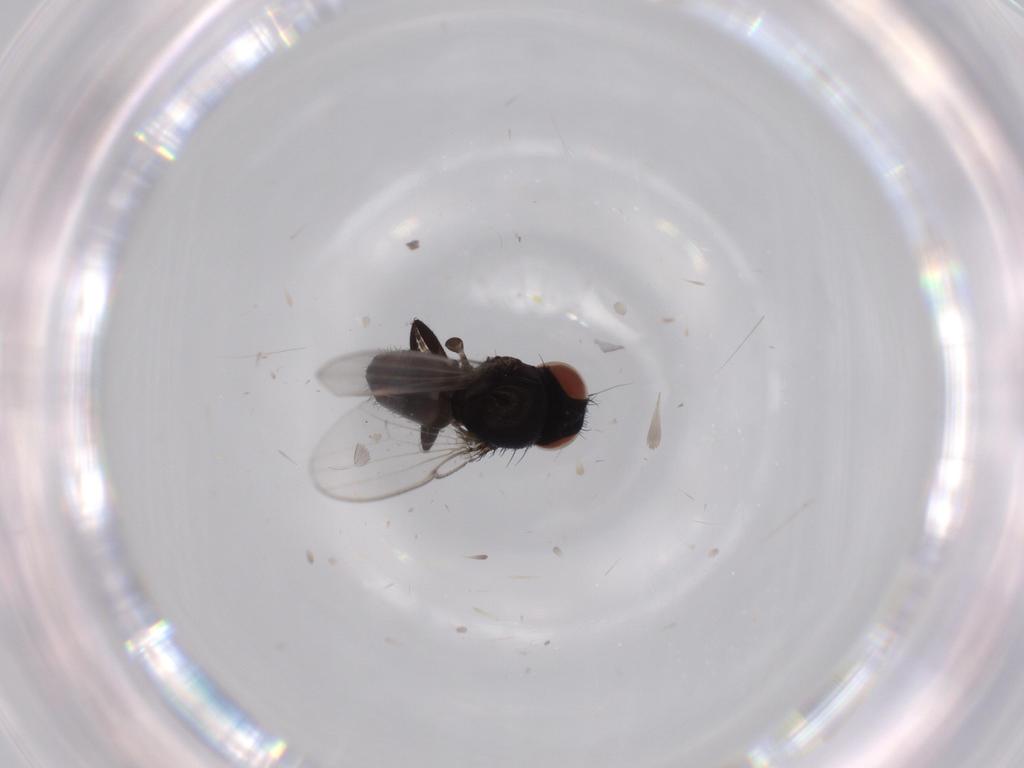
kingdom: Animalia
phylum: Arthropoda
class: Insecta
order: Diptera
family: Milichiidae
